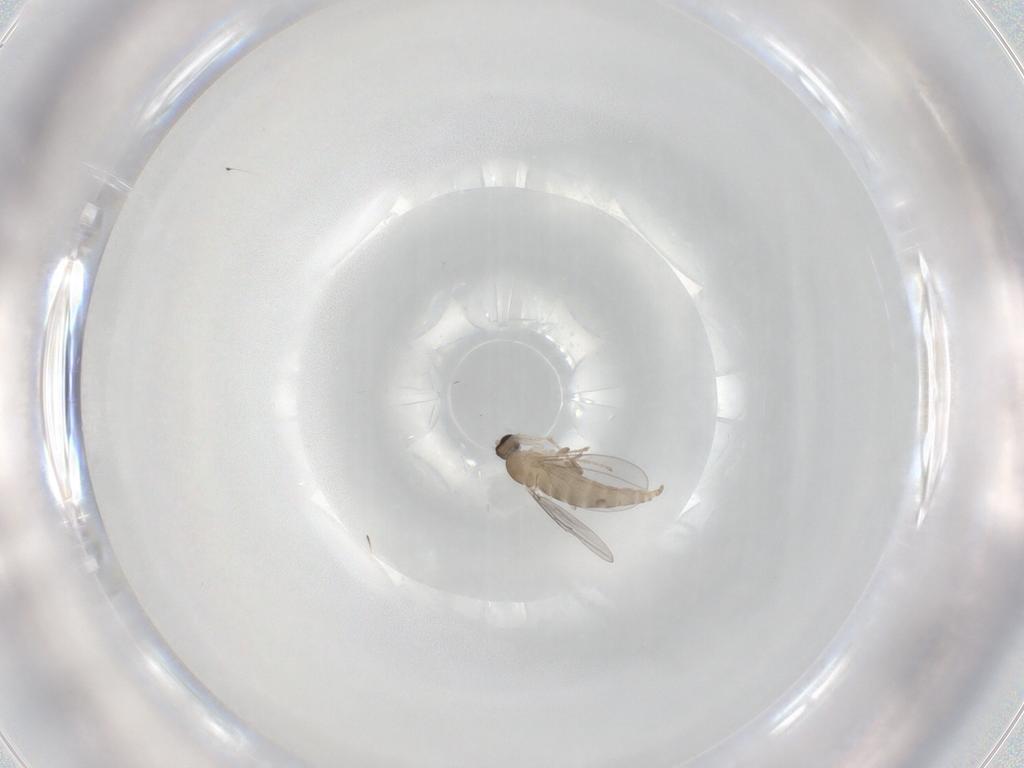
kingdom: Animalia
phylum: Arthropoda
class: Insecta
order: Diptera
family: Cecidomyiidae
